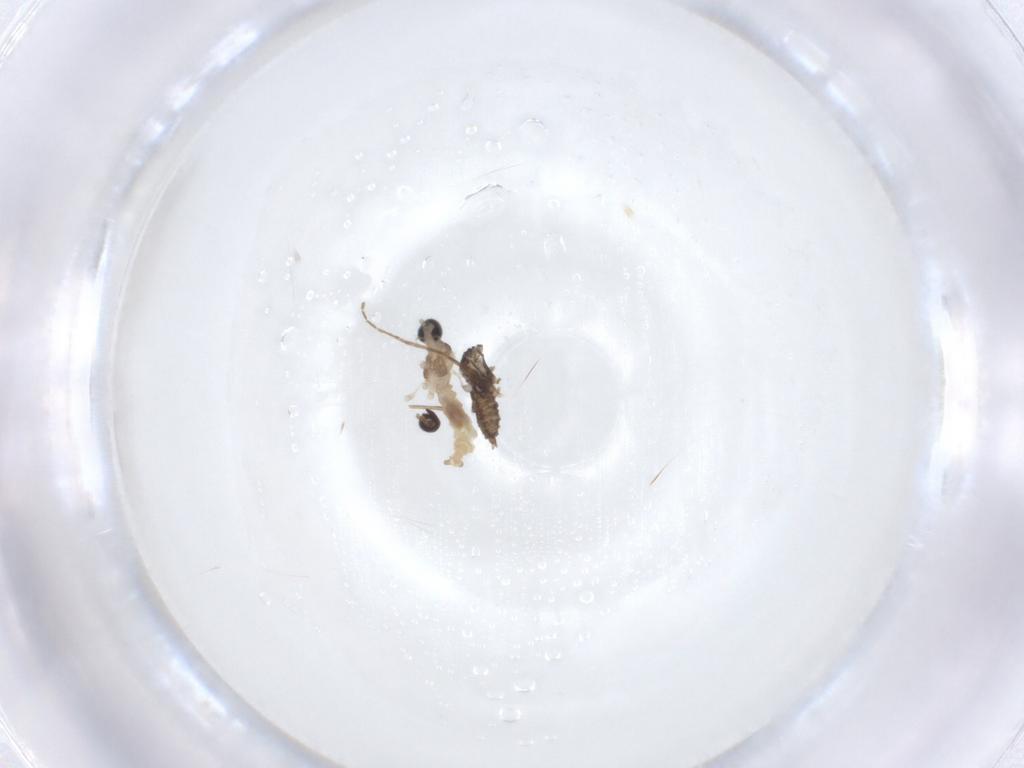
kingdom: Animalia
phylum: Arthropoda
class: Insecta
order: Diptera
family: Cecidomyiidae
